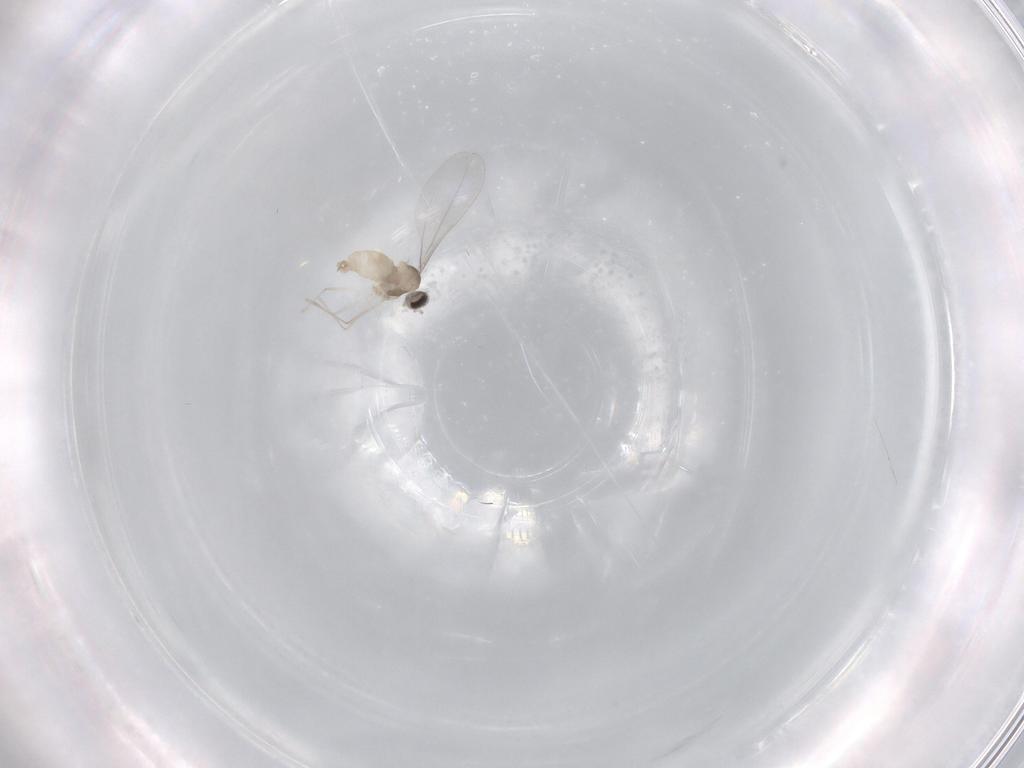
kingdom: Animalia
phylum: Arthropoda
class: Insecta
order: Diptera
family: Cecidomyiidae
